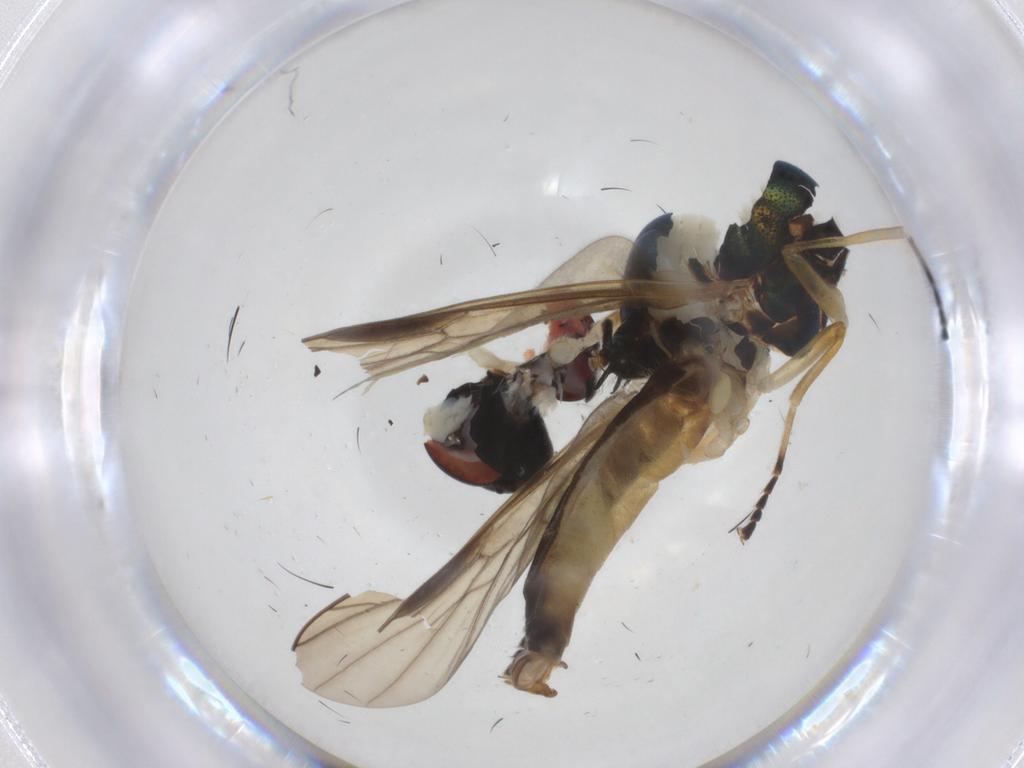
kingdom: Animalia
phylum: Arthropoda
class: Insecta
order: Diptera
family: Stratiomyidae
